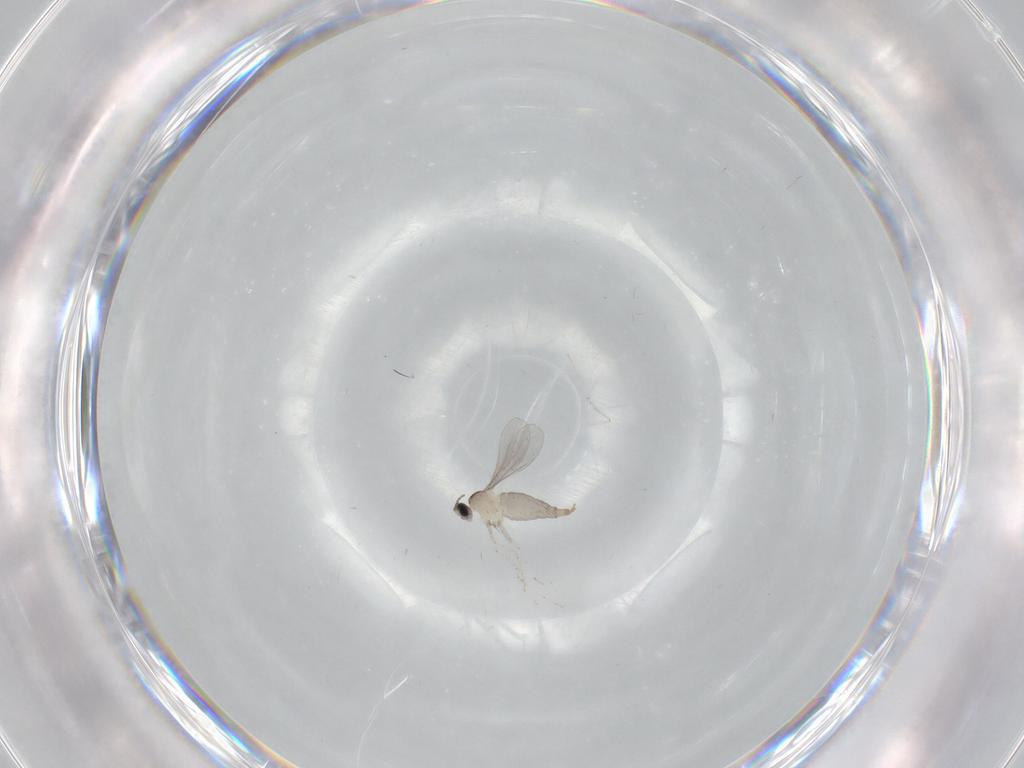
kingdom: Animalia
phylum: Arthropoda
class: Insecta
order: Diptera
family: Cecidomyiidae
